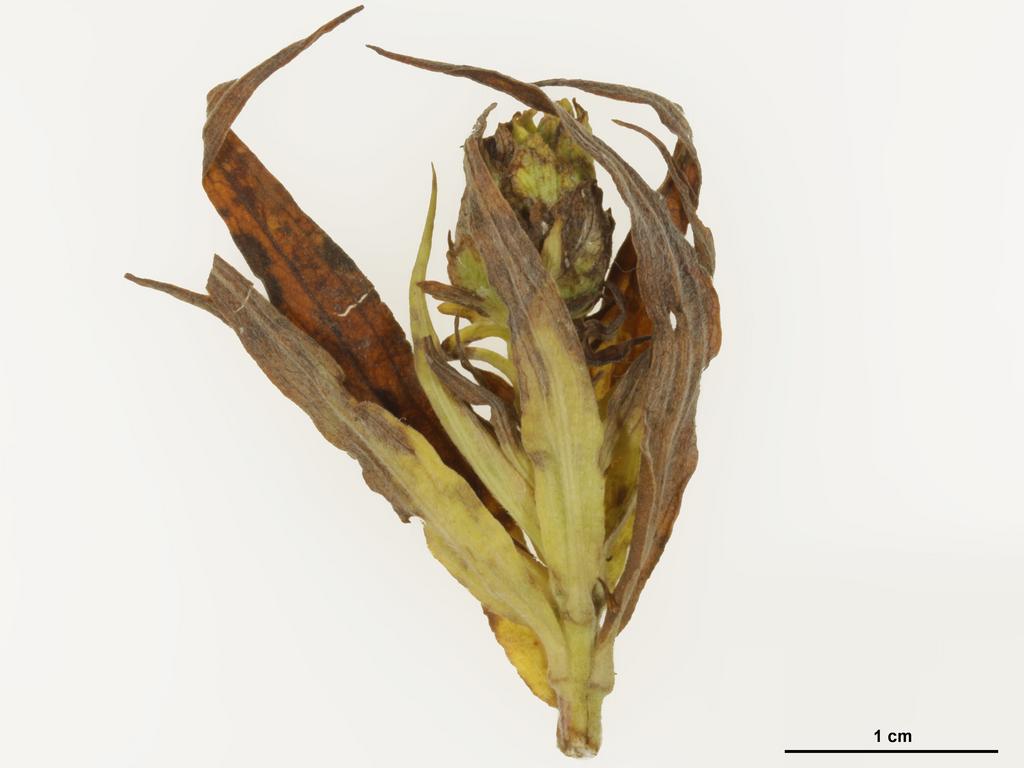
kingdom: Animalia
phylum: Arthropoda
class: Insecta
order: Hymenoptera
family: Torymidae
